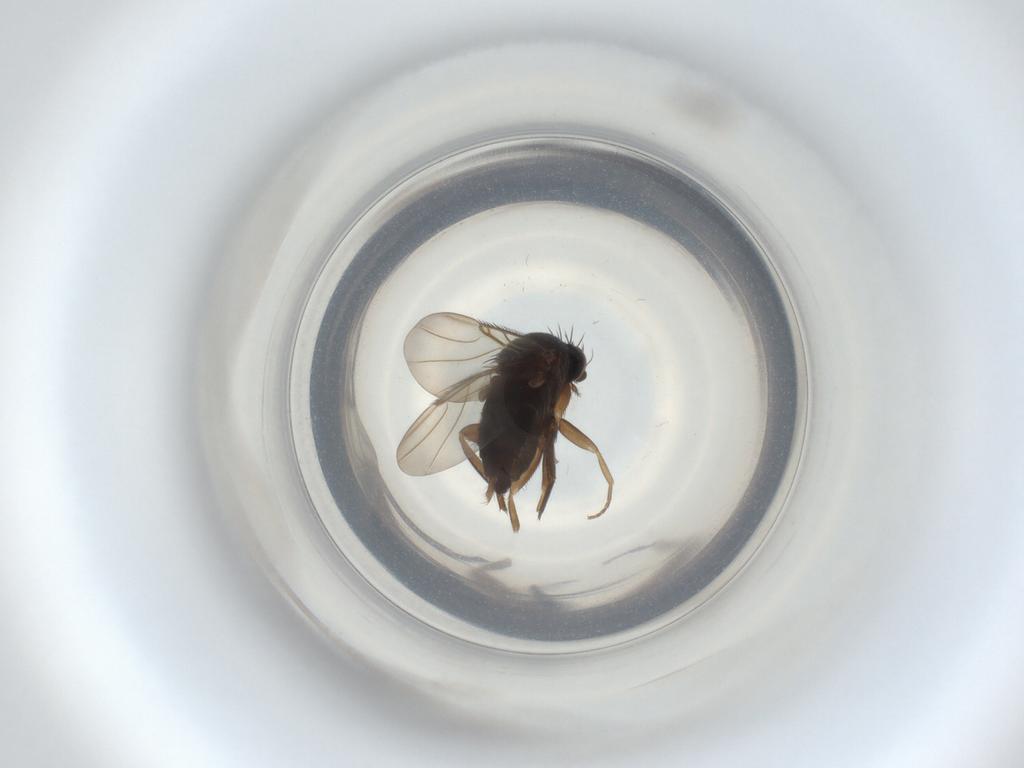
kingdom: Animalia
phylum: Arthropoda
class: Insecta
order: Diptera
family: Phoridae
